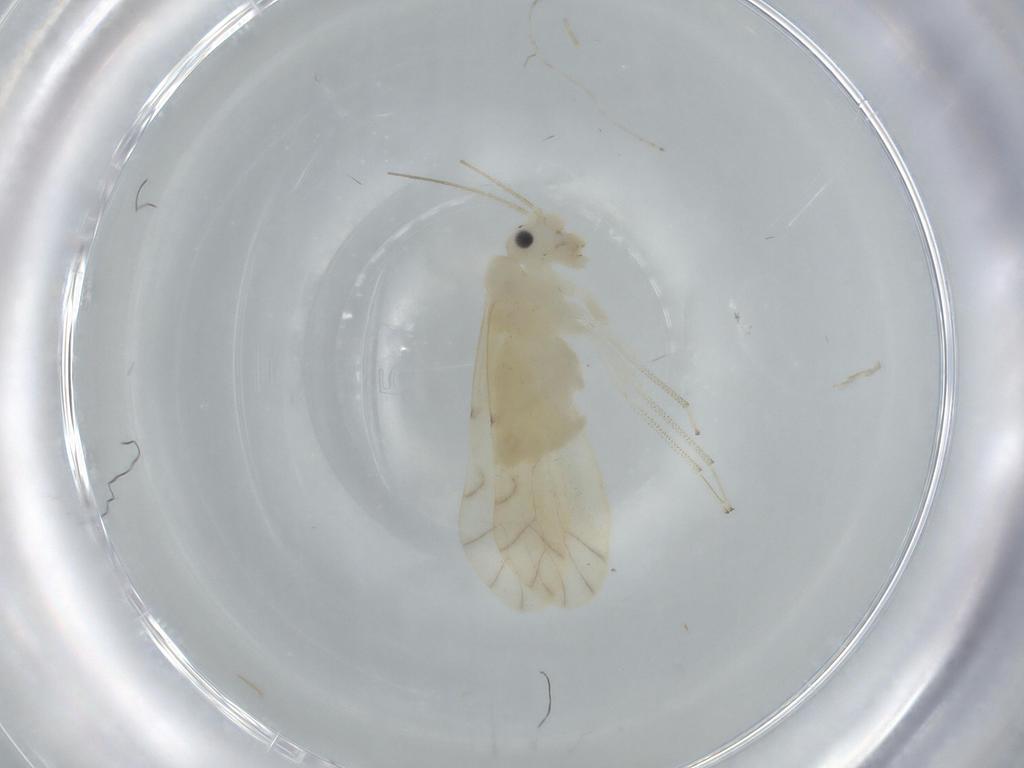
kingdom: Animalia
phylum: Arthropoda
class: Insecta
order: Psocodea
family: Caeciliusidae
